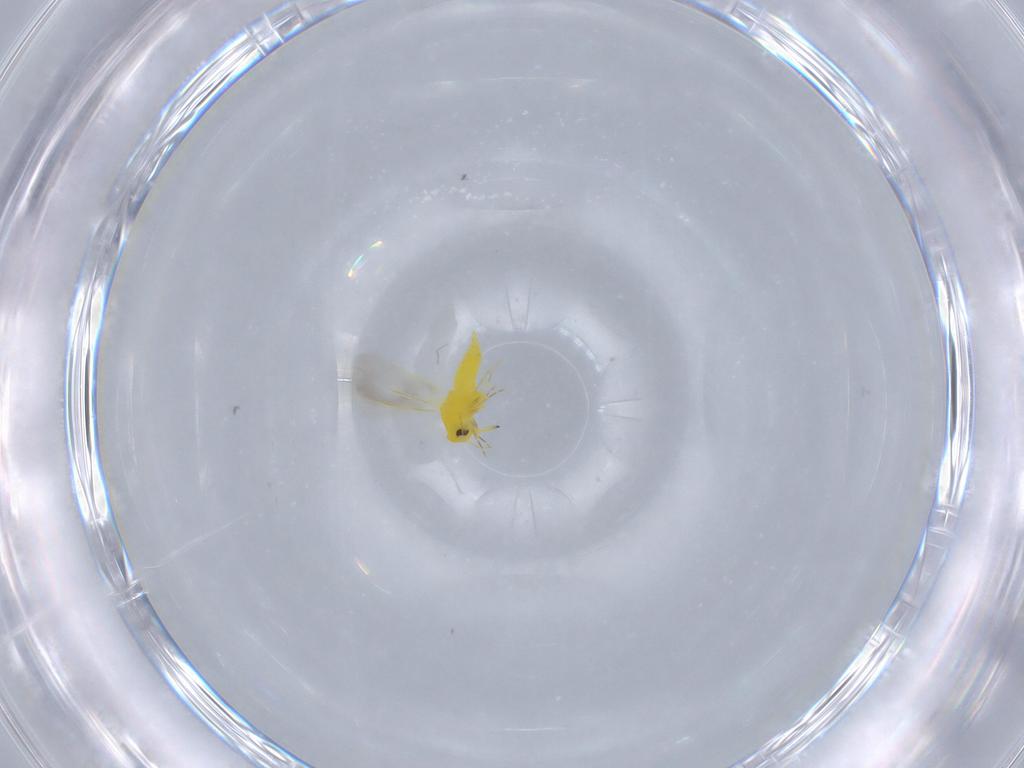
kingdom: Animalia
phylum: Arthropoda
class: Insecta
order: Hemiptera
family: Aleyrodidae
